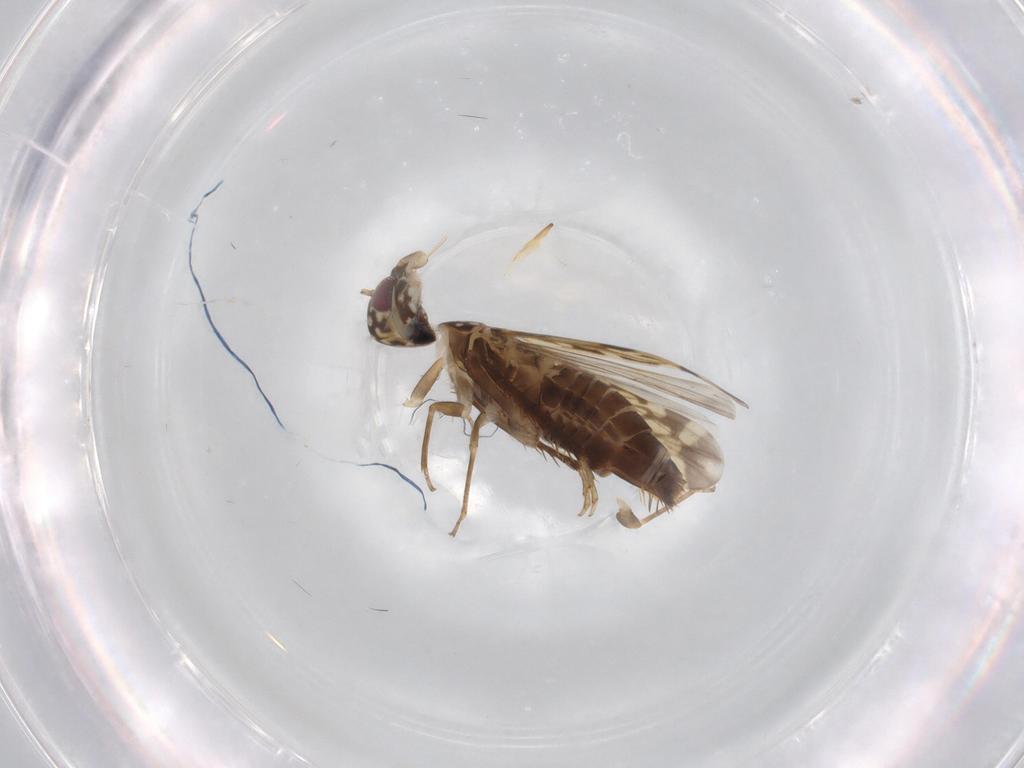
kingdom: Animalia
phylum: Arthropoda
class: Insecta
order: Hemiptera
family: Cicadellidae
